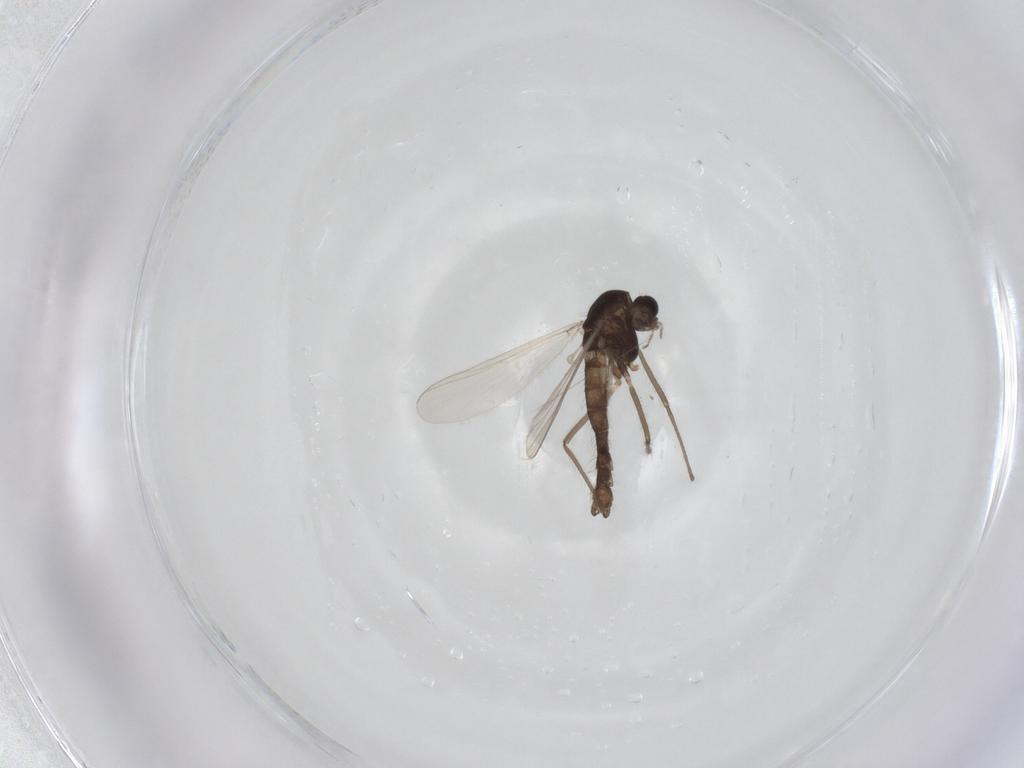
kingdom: Animalia
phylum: Arthropoda
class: Insecta
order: Diptera
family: Chironomidae
